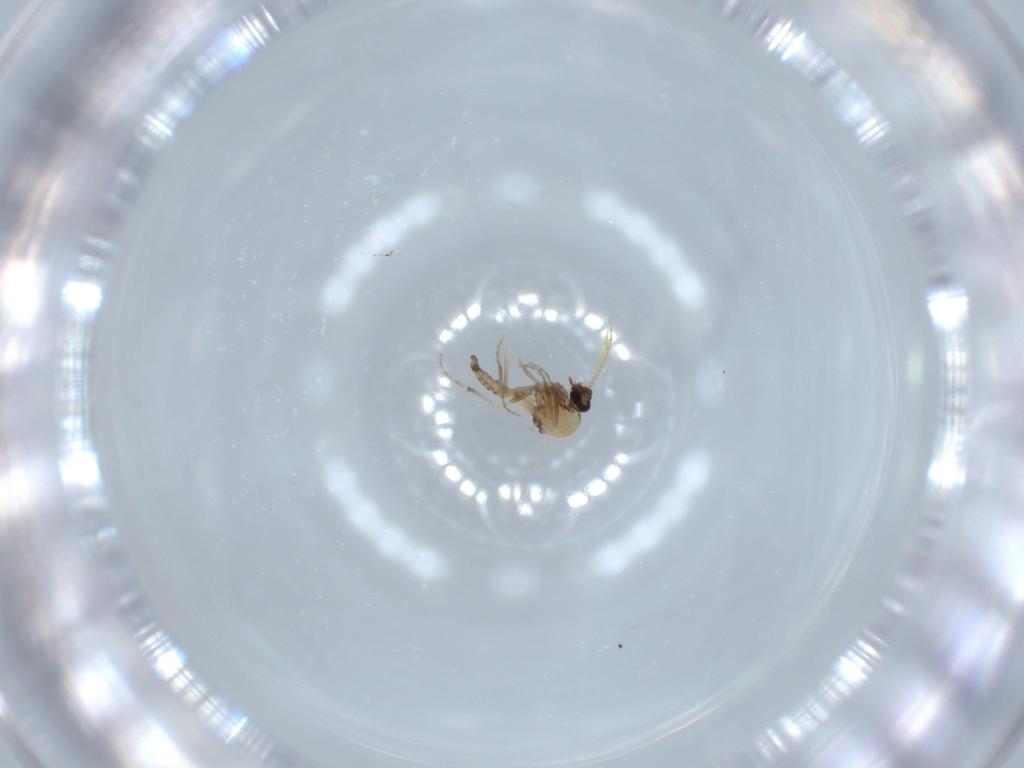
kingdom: Animalia
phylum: Arthropoda
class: Insecta
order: Diptera
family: Ceratopogonidae
